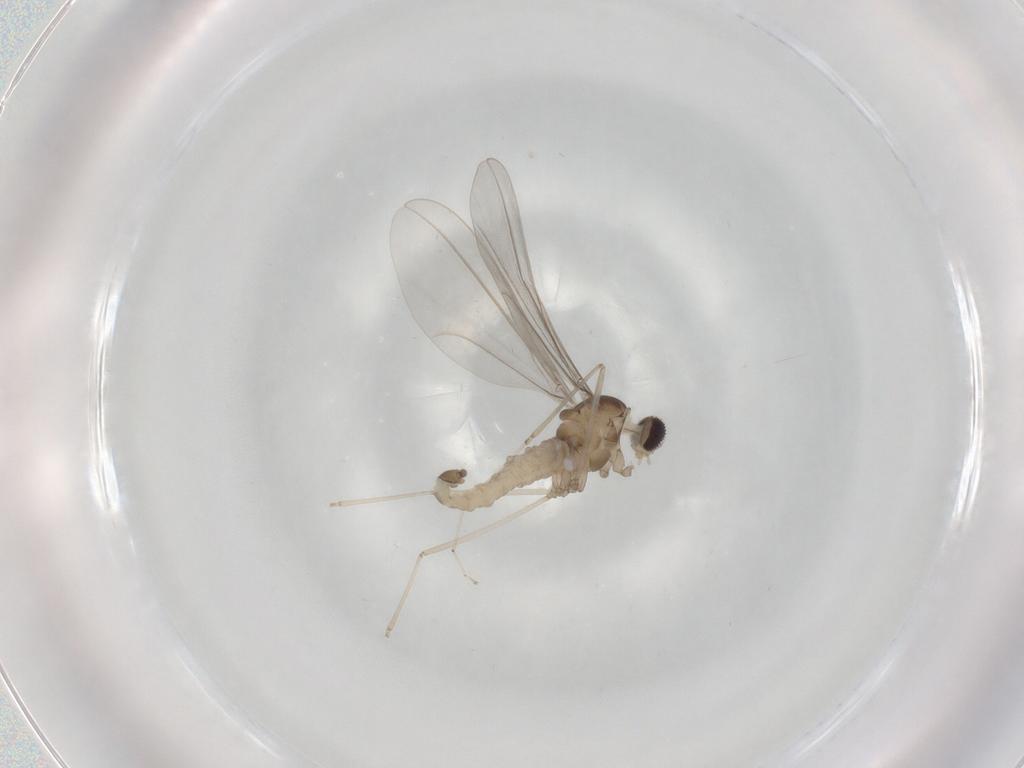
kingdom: Animalia
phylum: Arthropoda
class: Insecta
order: Diptera
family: Cecidomyiidae
